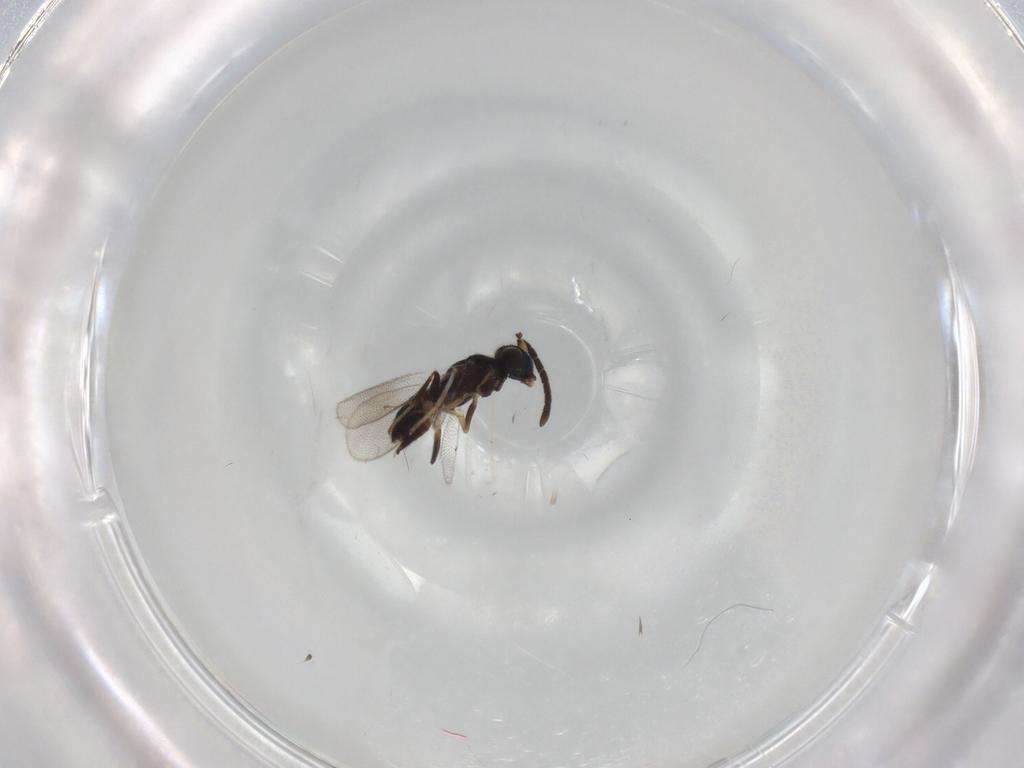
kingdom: Animalia
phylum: Arthropoda
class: Insecta
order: Hymenoptera
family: Eupelmidae
